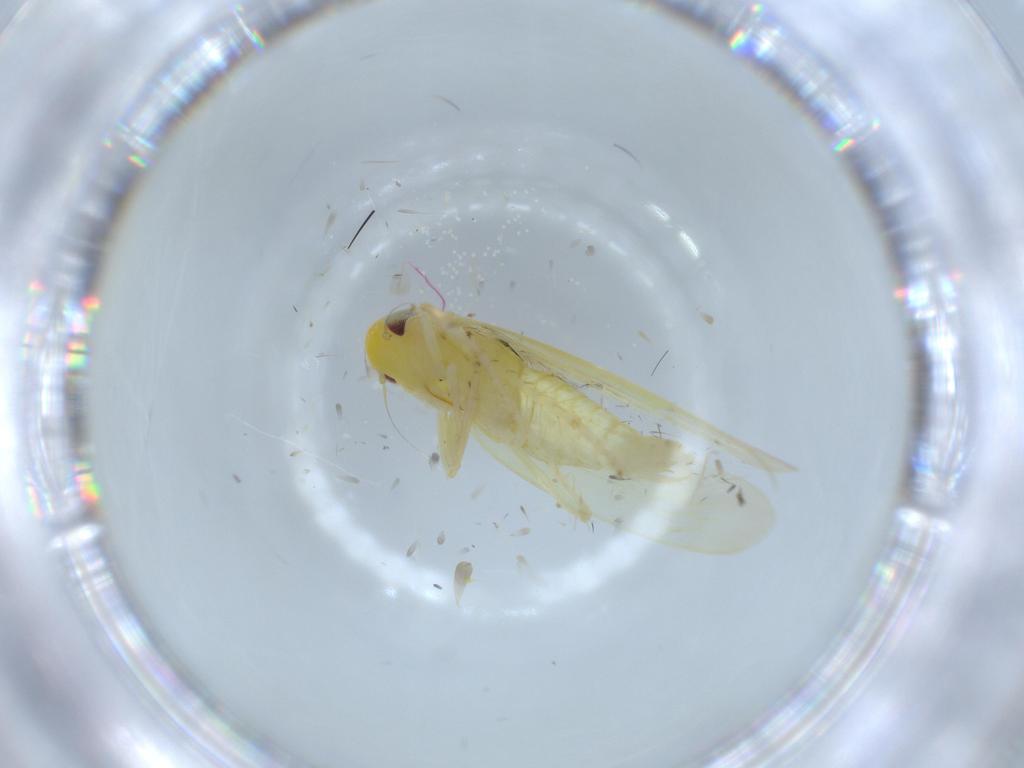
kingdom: Animalia
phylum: Arthropoda
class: Insecta
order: Hemiptera
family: Cicadellidae
